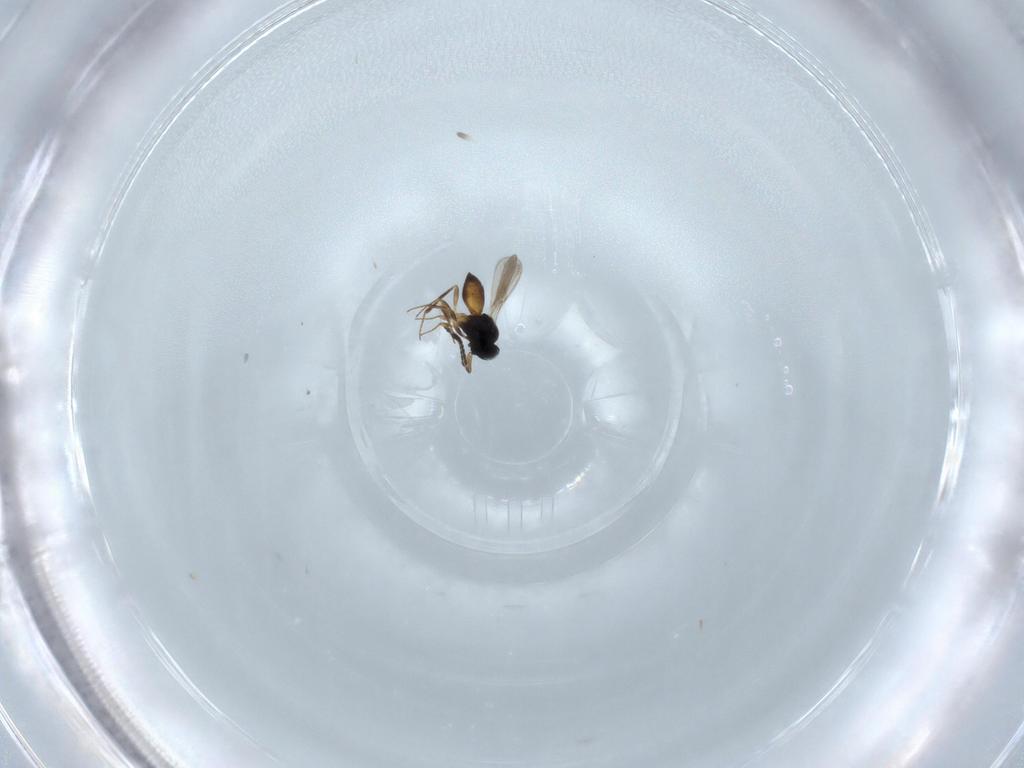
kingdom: Animalia
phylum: Arthropoda
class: Insecta
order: Hymenoptera
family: Scelionidae
